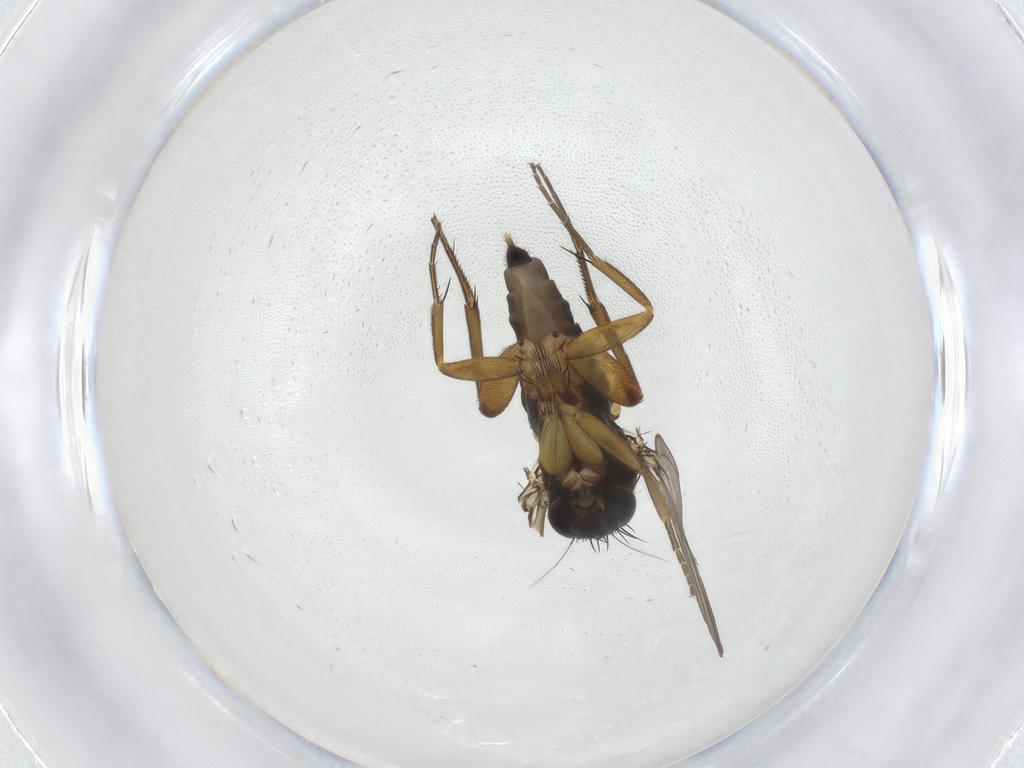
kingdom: Animalia
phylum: Arthropoda
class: Insecta
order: Diptera
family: Phoridae
